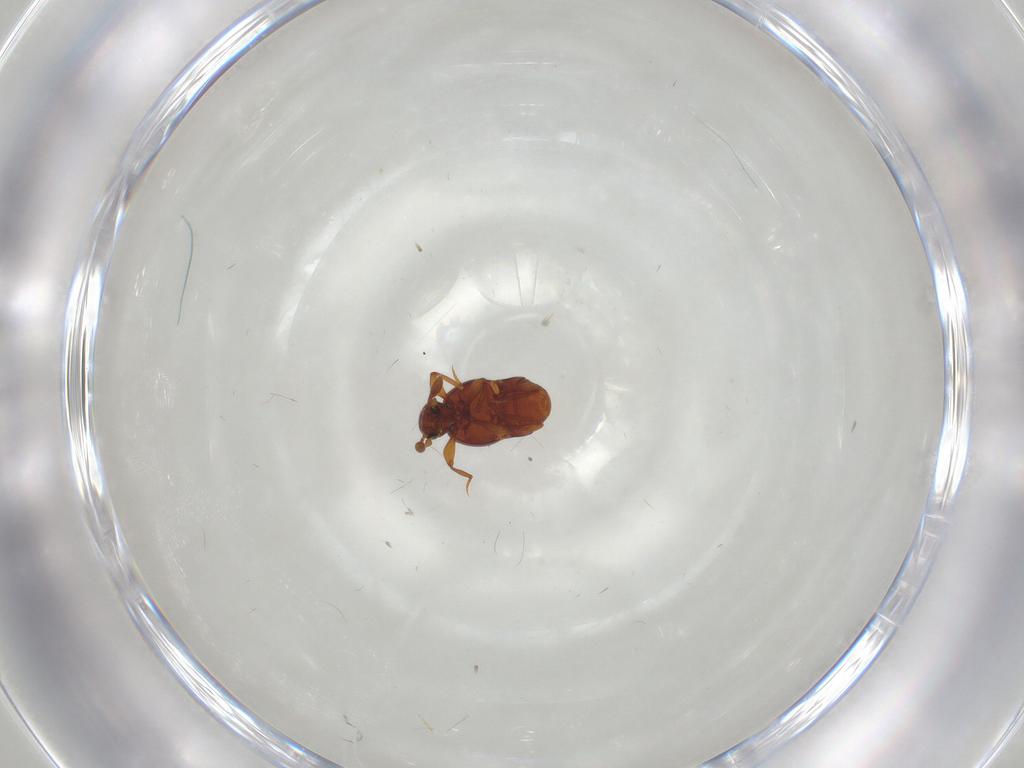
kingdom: Animalia
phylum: Arthropoda
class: Insecta
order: Coleoptera
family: Staphylinidae
